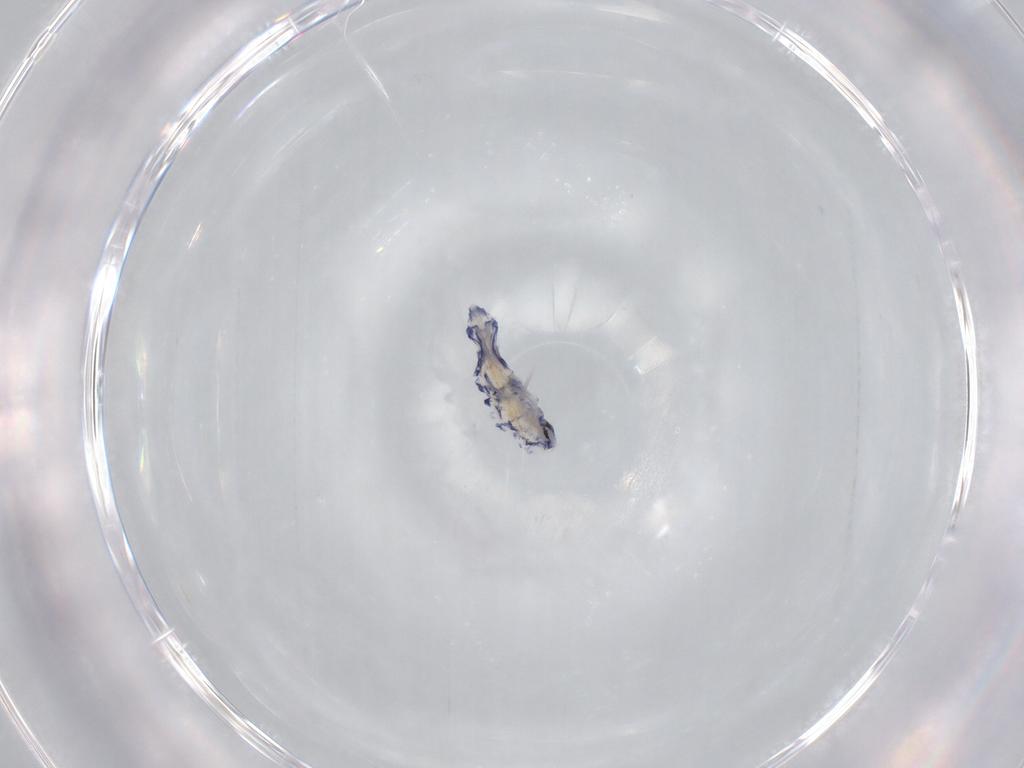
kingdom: Animalia
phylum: Arthropoda
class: Collembola
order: Entomobryomorpha
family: Entomobryidae
